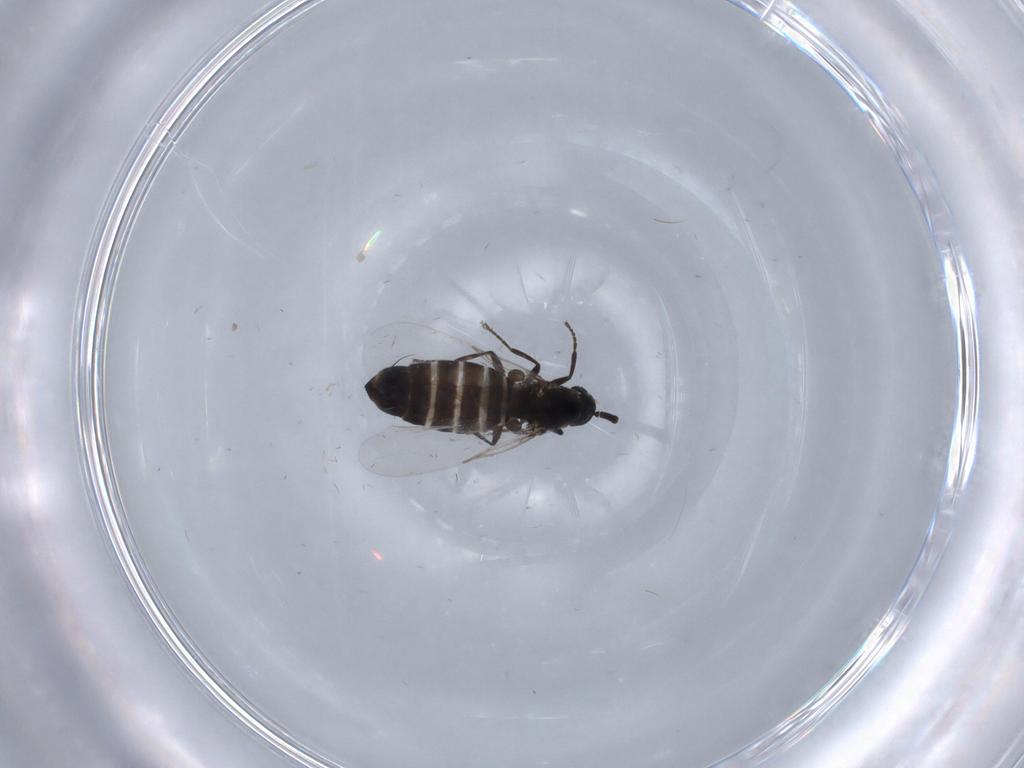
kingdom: Animalia
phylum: Arthropoda
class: Insecta
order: Diptera
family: Scatopsidae
